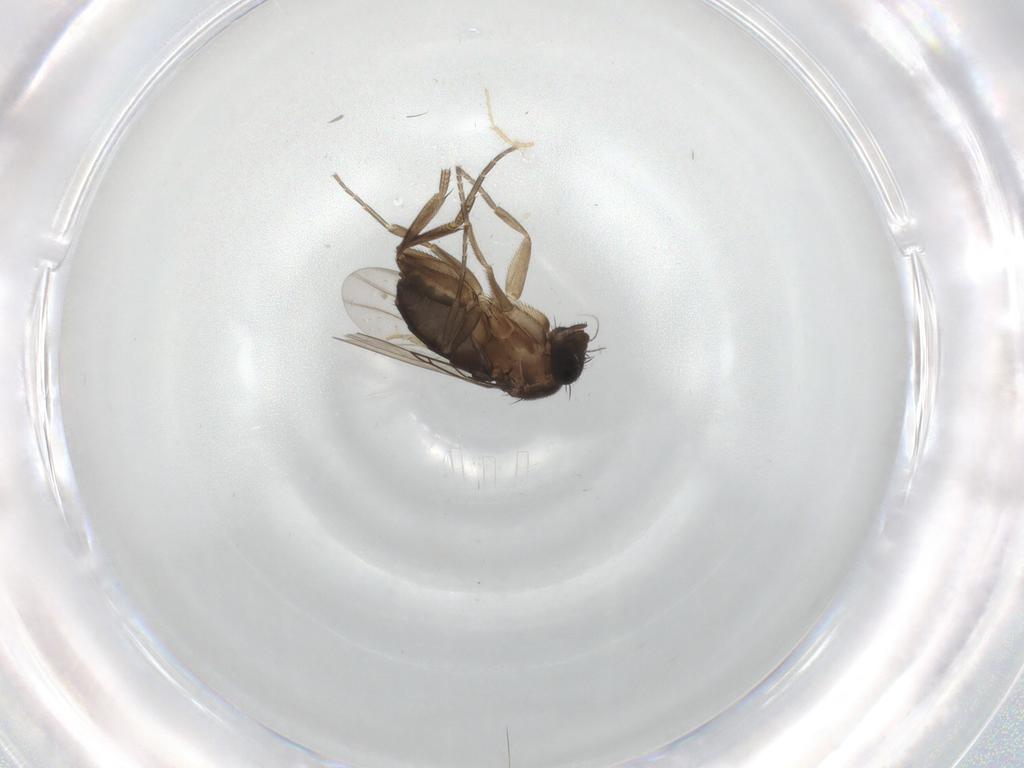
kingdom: Animalia
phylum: Arthropoda
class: Insecta
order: Diptera
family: Phoridae
